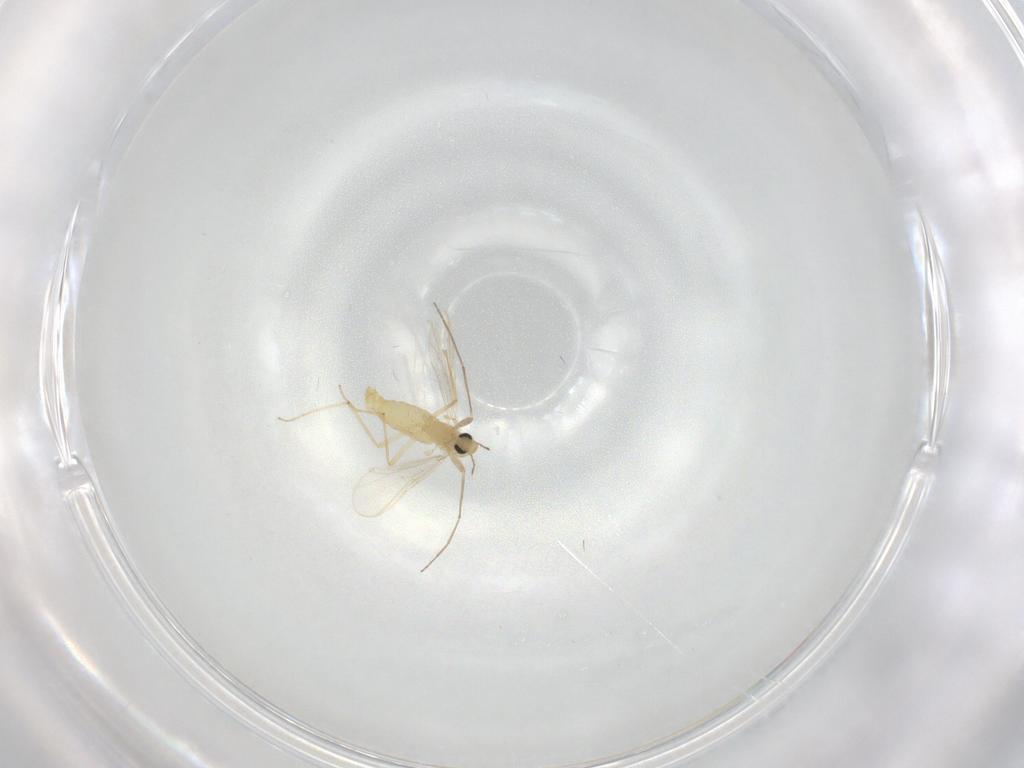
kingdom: Animalia
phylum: Arthropoda
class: Insecta
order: Diptera
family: Chironomidae
